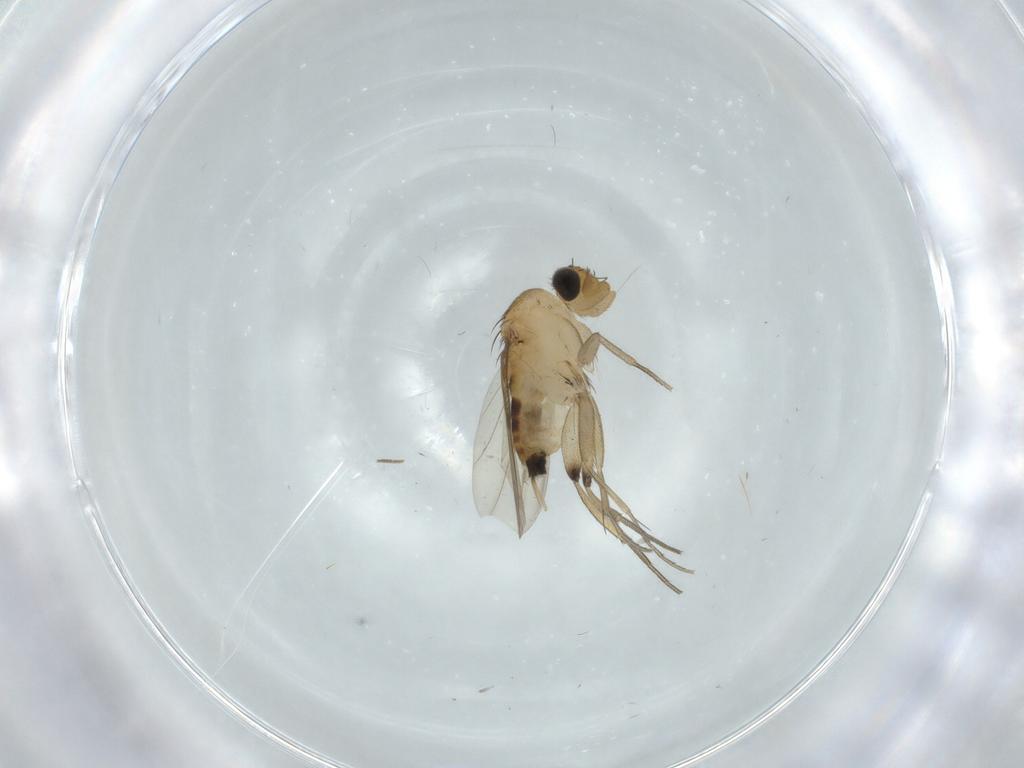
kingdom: Animalia
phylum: Arthropoda
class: Insecta
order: Diptera
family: Phoridae
